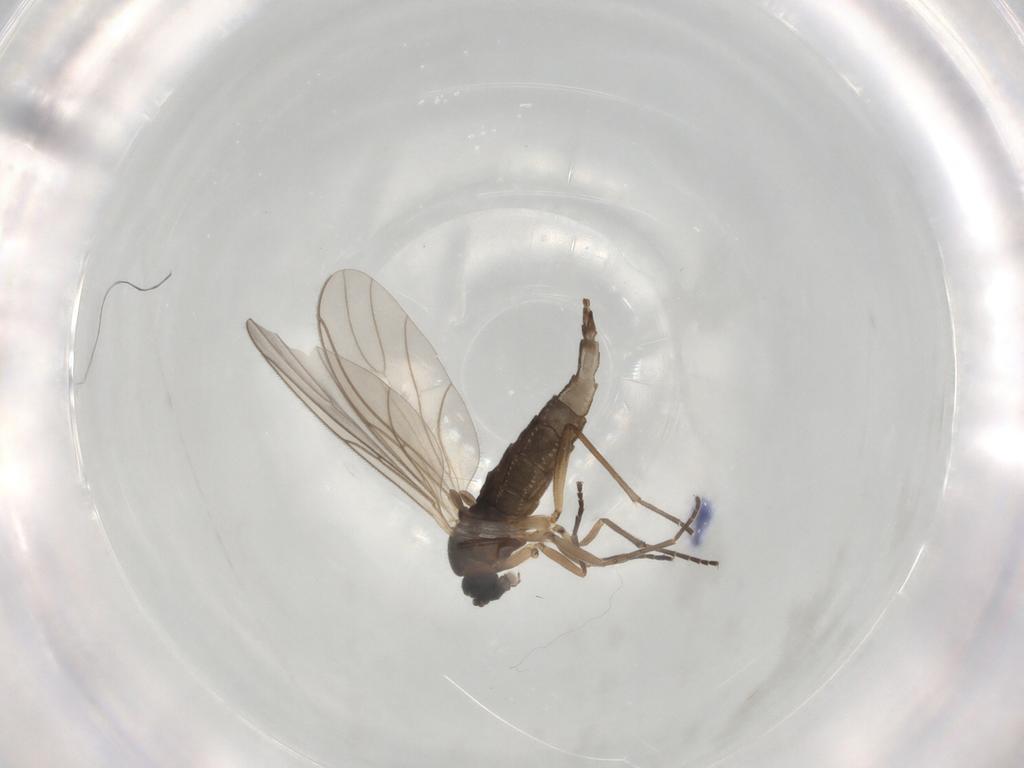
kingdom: Animalia
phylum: Arthropoda
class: Insecta
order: Diptera
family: Phoridae
